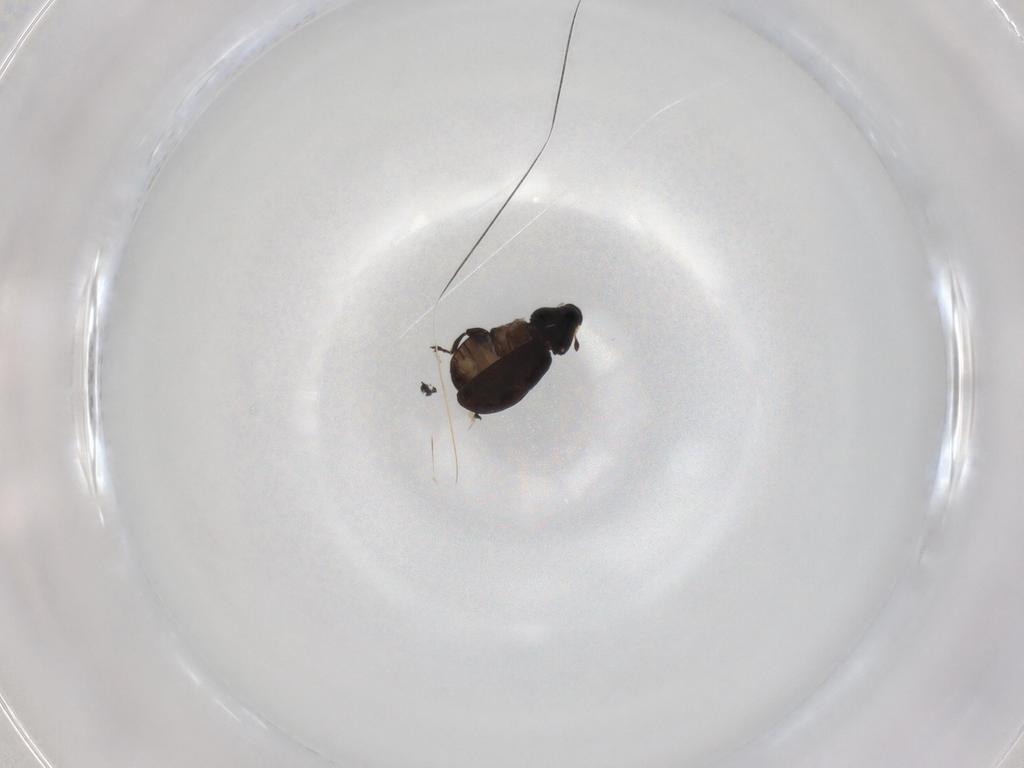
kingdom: Animalia
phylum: Arthropoda
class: Insecta
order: Coleoptera
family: Curculionidae
